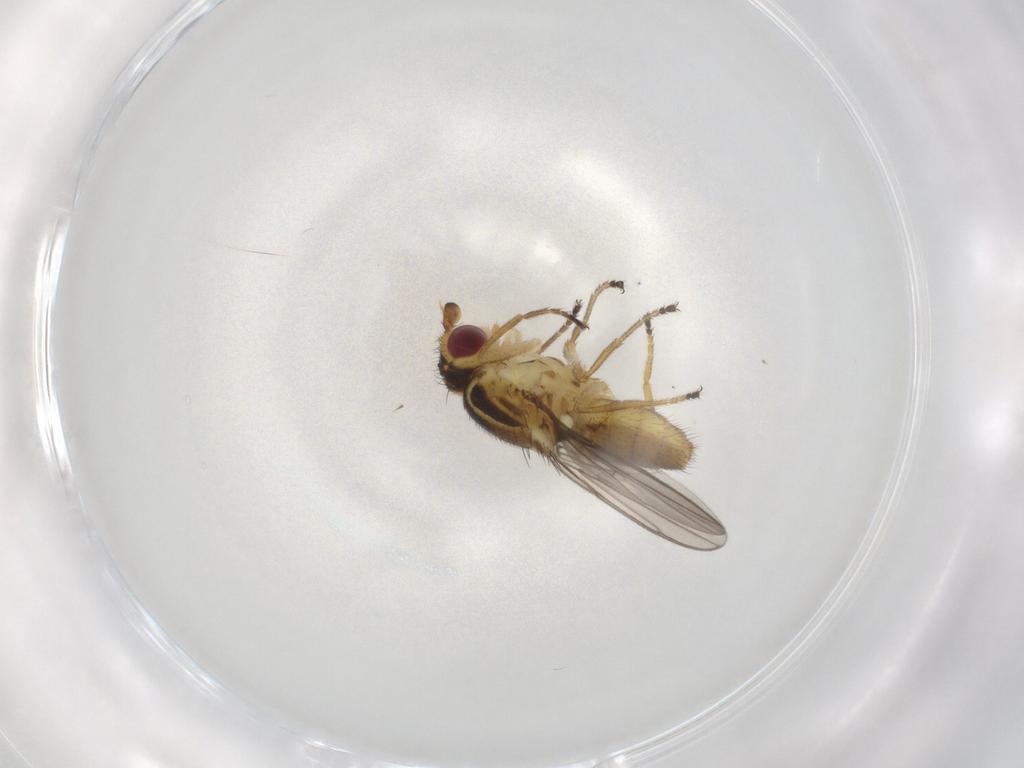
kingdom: Animalia
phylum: Arthropoda
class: Insecta
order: Diptera
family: Chloropidae
